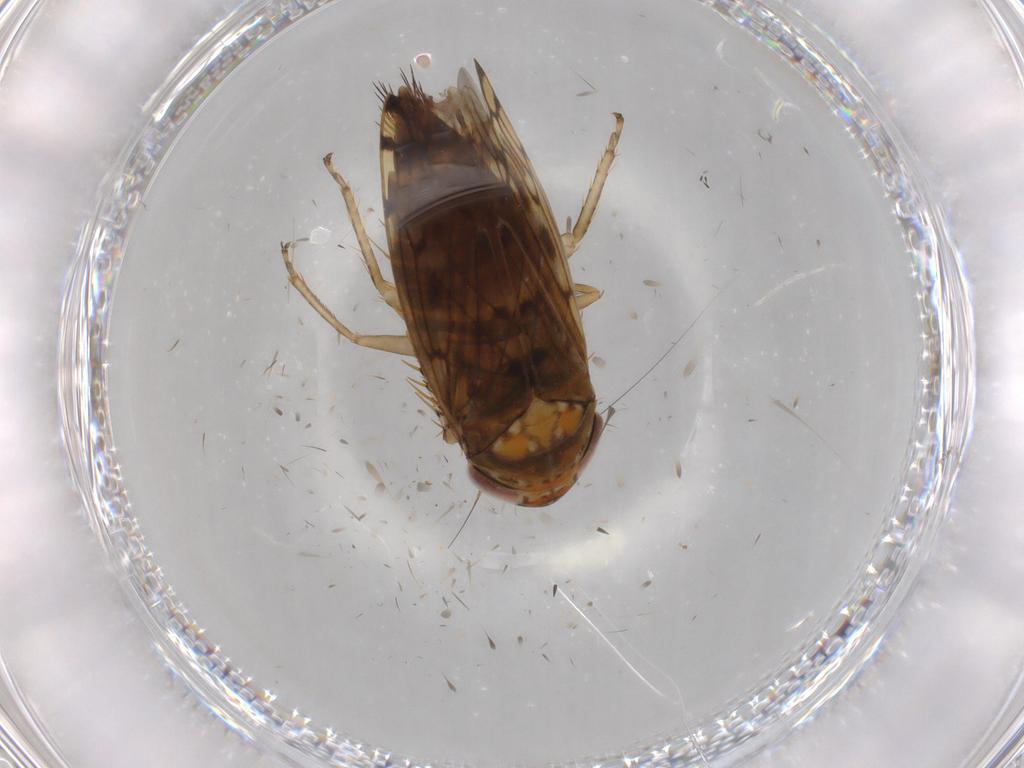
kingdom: Animalia
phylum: Arthropoda
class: Insecta
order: Hemiptera
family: Cicadellidae
